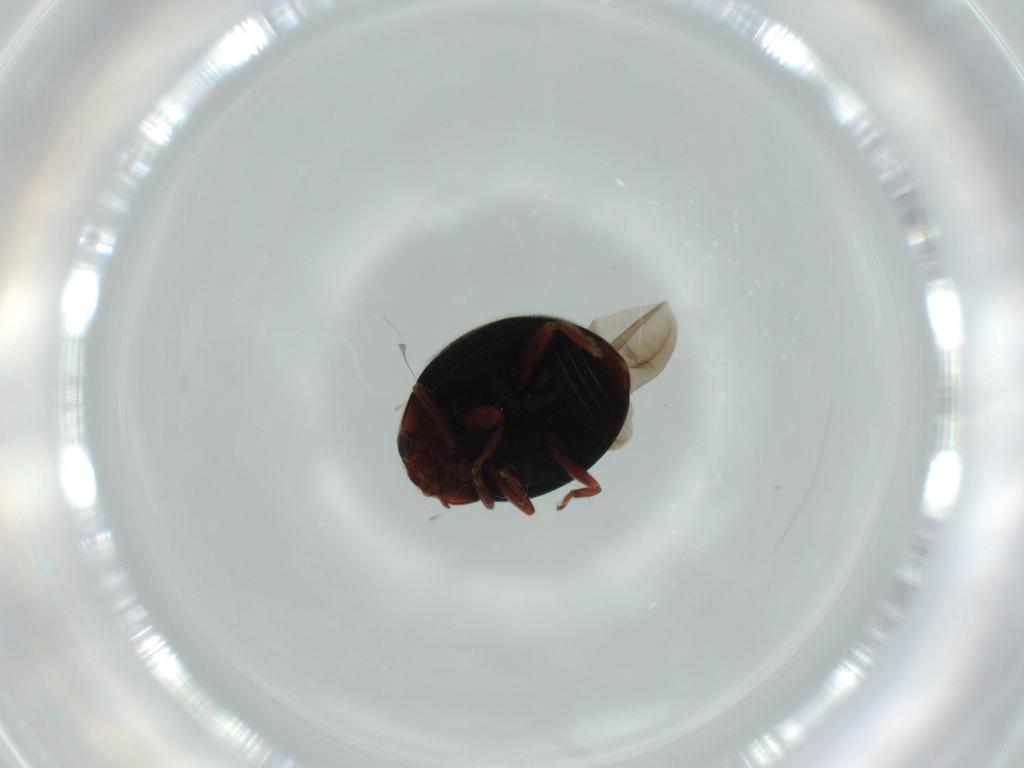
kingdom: Animalia
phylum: Arthropoda
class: Insecta
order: Coleoptera
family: Coccinellidae
